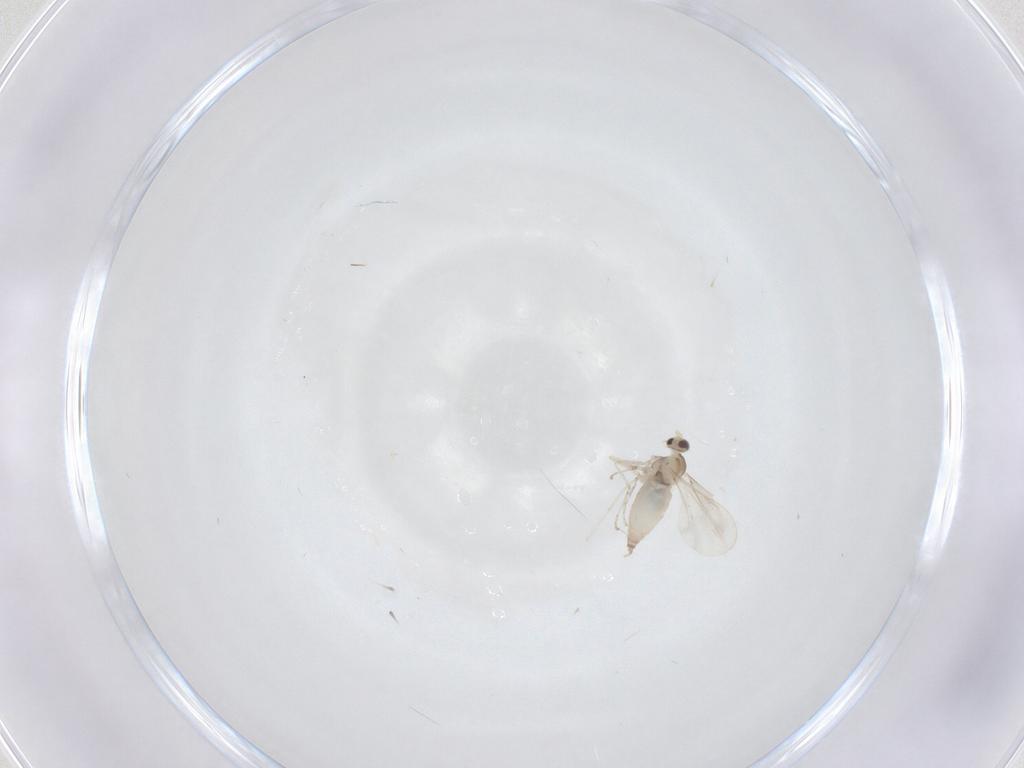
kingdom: Animalia
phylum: Arthropoda
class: Insecta
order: Diptera
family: Cecidomyiidae
